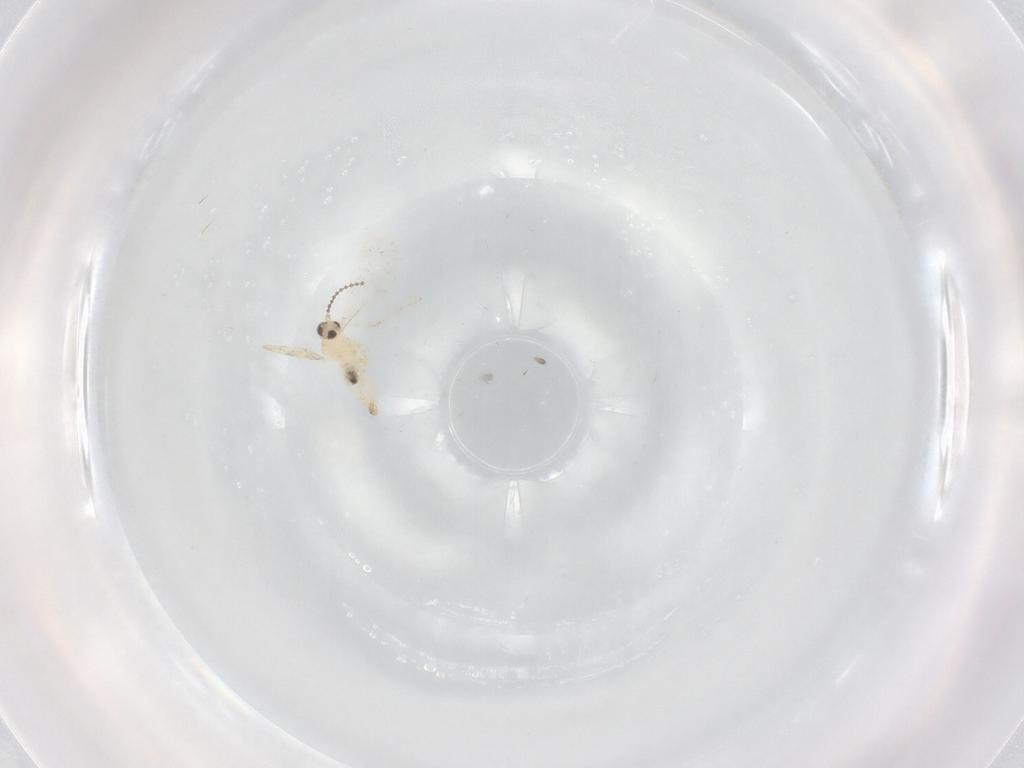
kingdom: Animalia
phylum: Arthropoda
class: Insecta
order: Diptera
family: Cecidomyiidae
